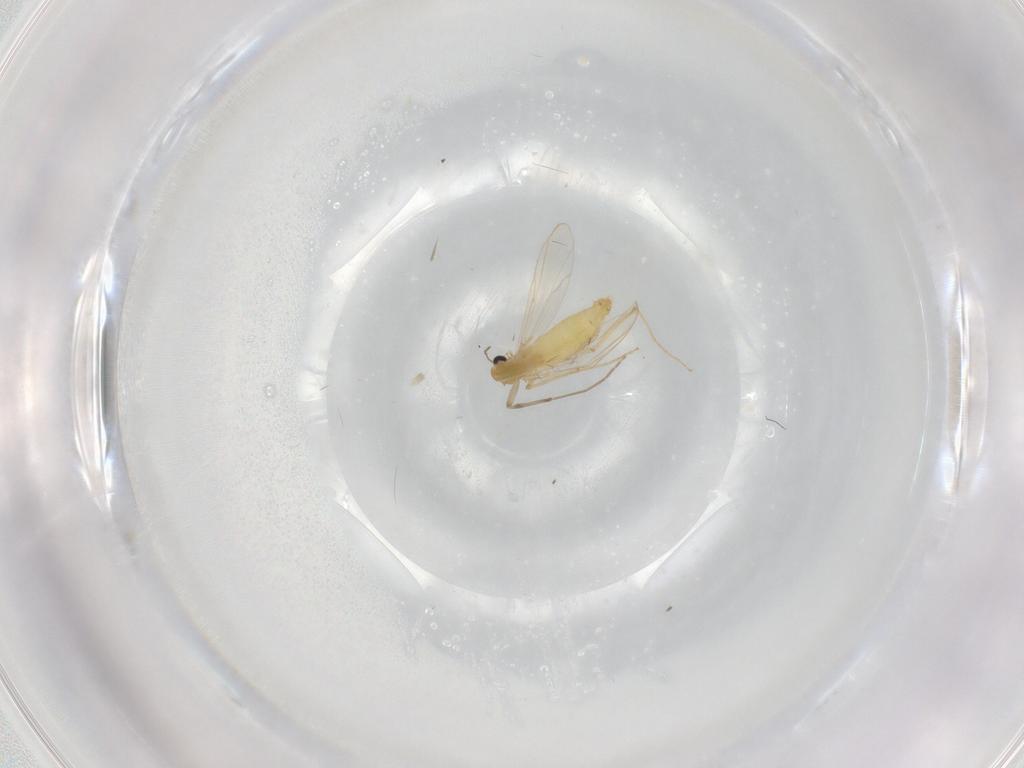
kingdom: Animalia
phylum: Arthropoda
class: Insecta
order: Diptera
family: Chironomidae
